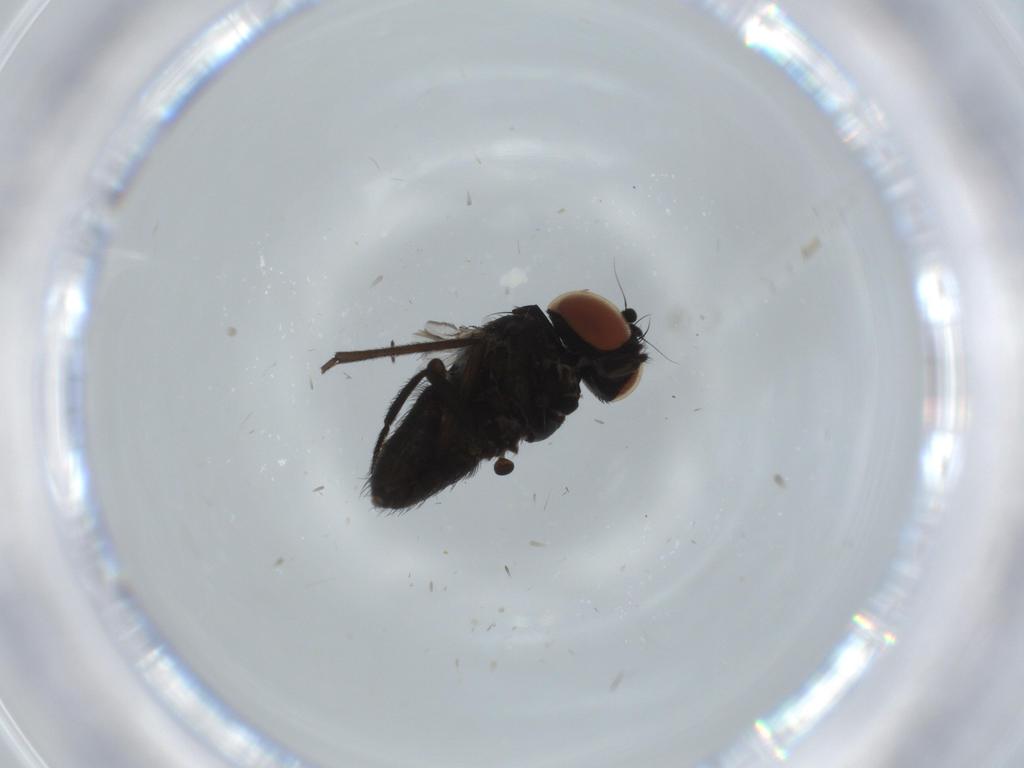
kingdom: Animalia
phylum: Arthropoda
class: Insecta
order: Diptera
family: Milichiidae
